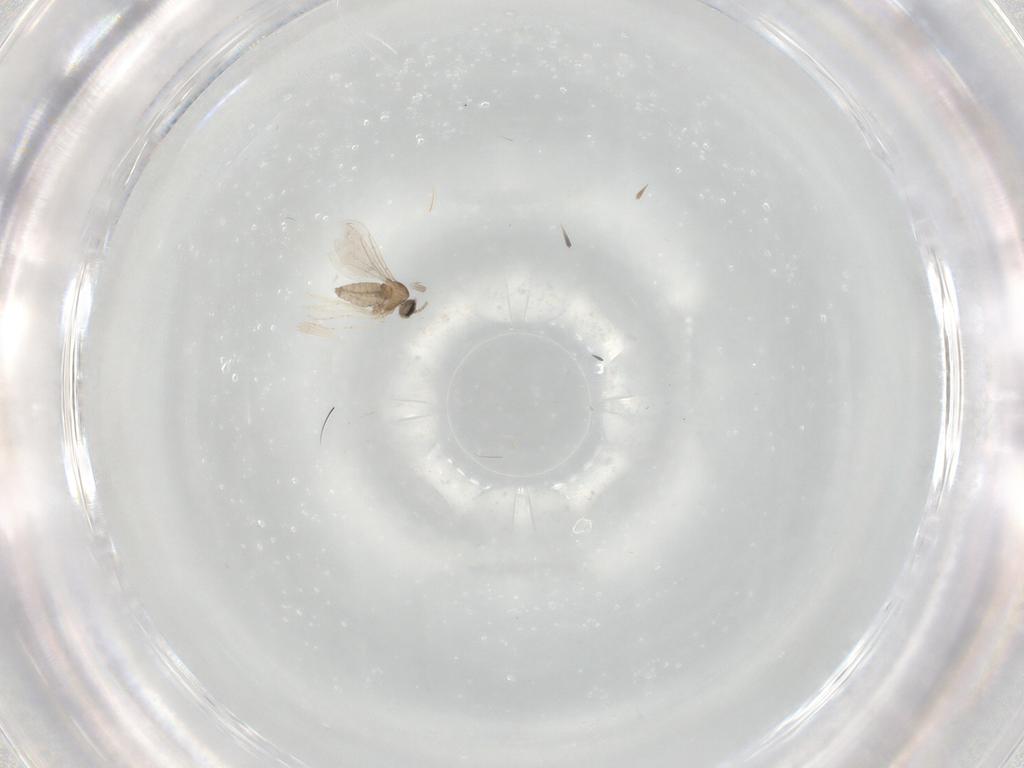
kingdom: Animalia
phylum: Arthropoda
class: Insecta
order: Diptera
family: Cecidomyiidae
